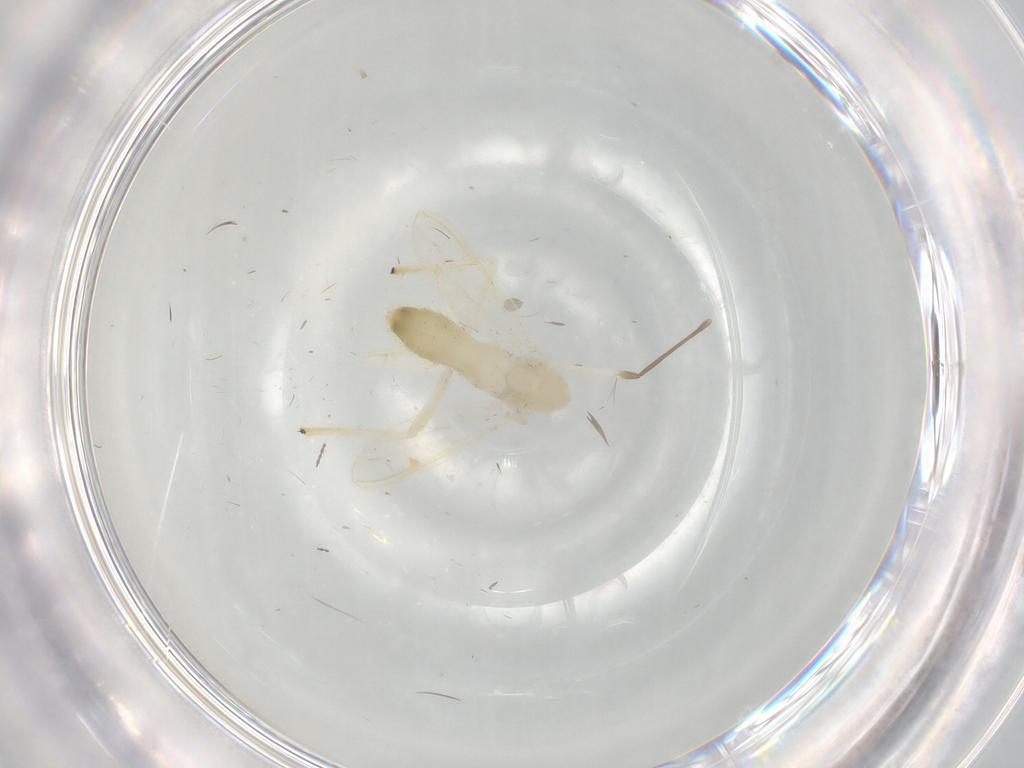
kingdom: Animalia
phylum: Arthropoda
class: Insecta
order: Diptera
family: Chironomidae
